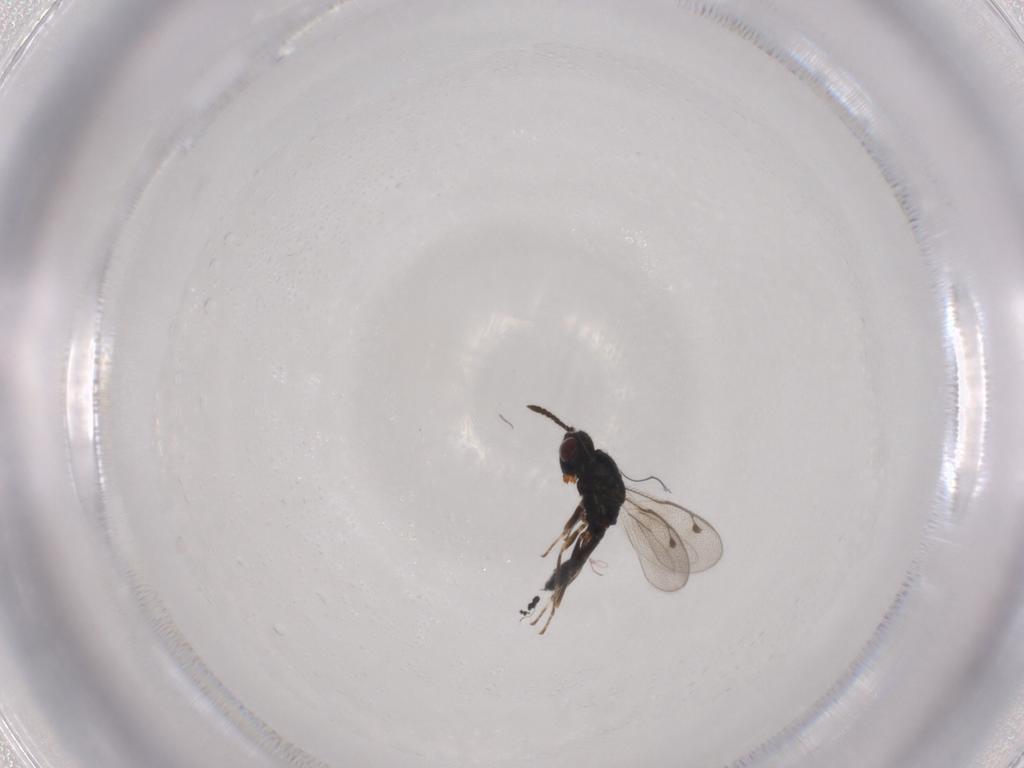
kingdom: Animalia
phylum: Arthropoda
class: Insecta
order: Hymenoptera
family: Pteromalidae
